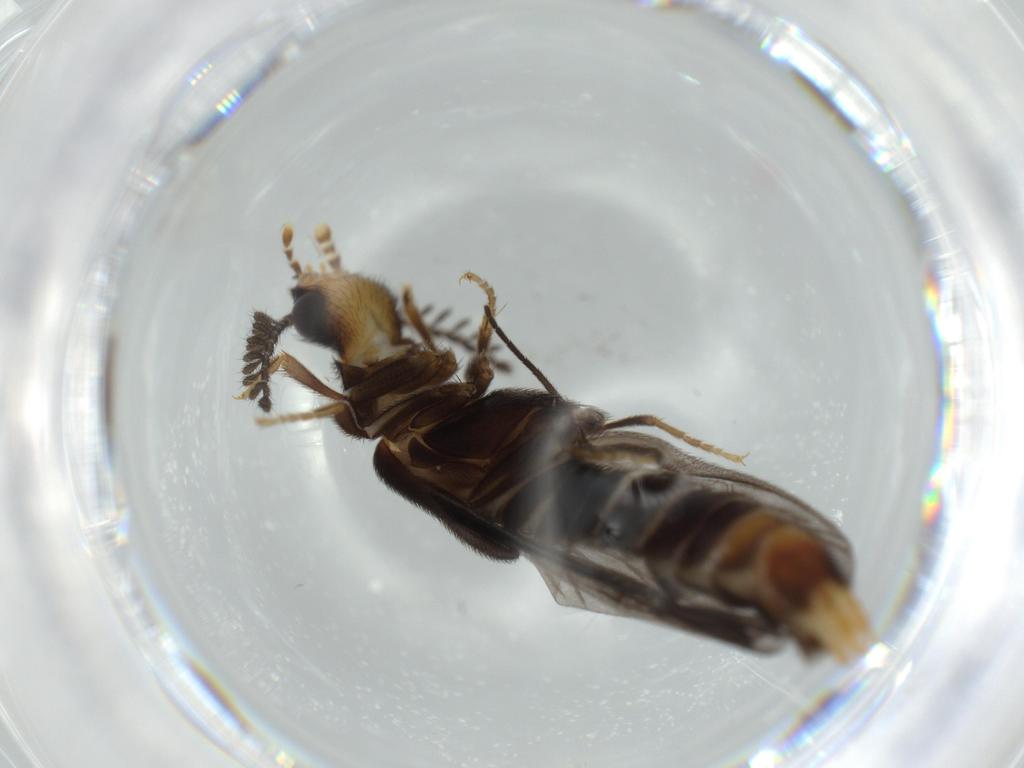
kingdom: Animalia
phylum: Arthropoda
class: Insecta
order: Coleoptera
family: Phengodidae
